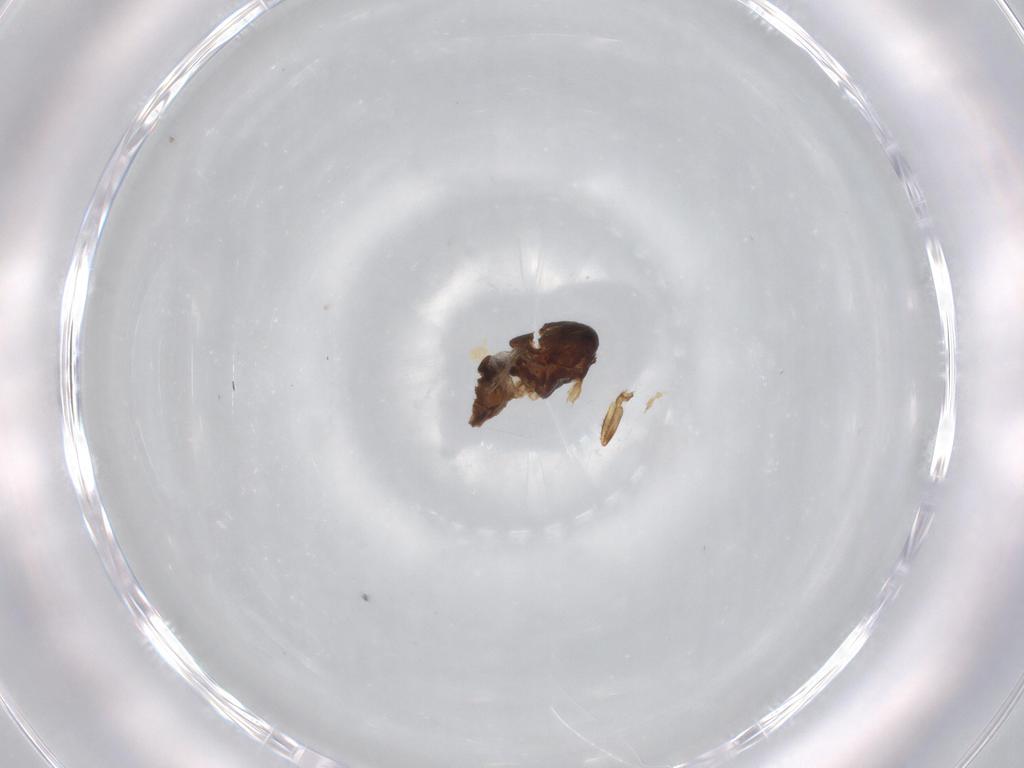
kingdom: Animalia
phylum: Arthropoda
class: Insecta
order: Diptera
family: Ephydridae
